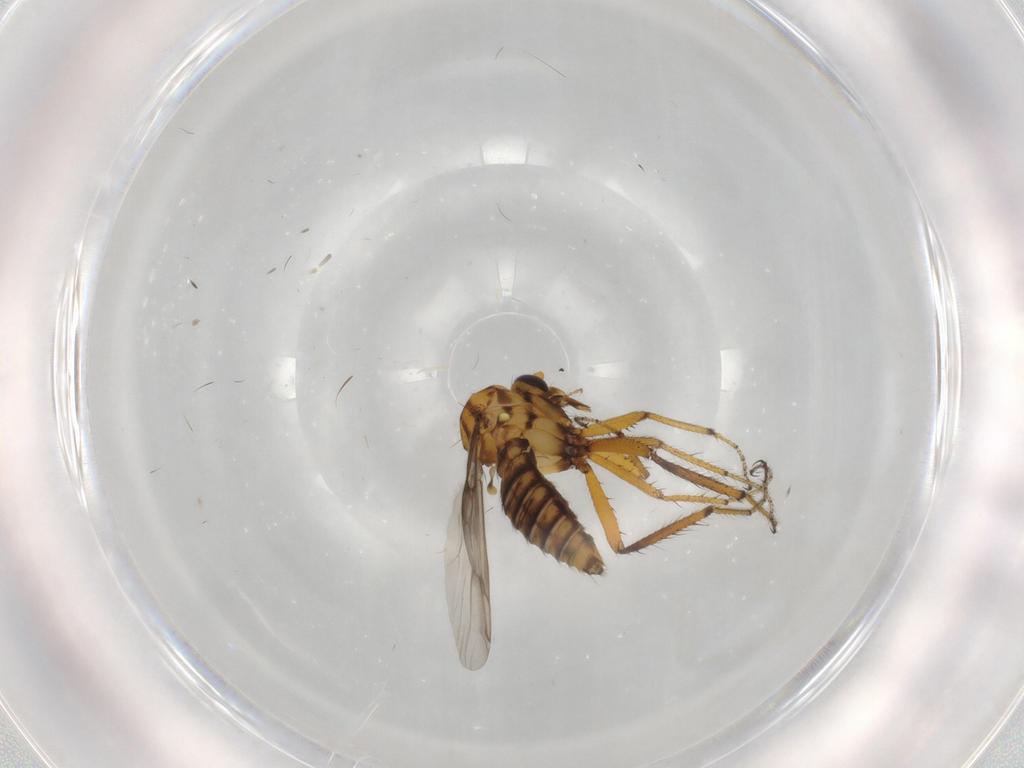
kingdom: Animalia
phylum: Arthropoda
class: Insecta
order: Diptera
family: Ceratopogonidae
